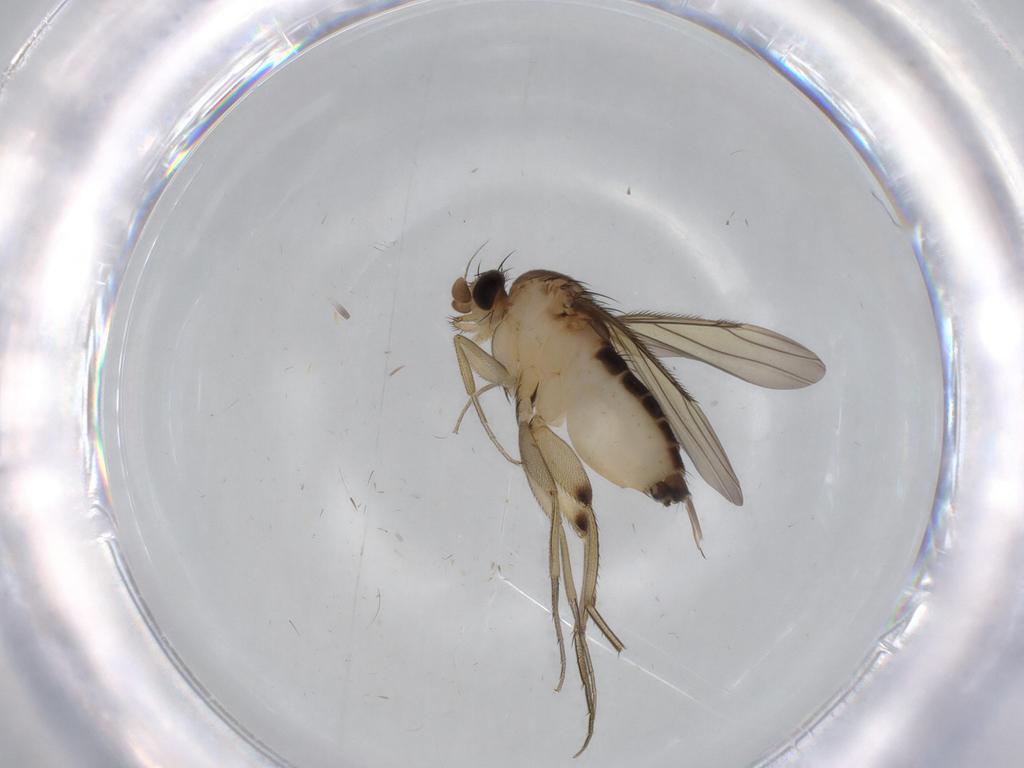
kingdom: Animalia
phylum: Arthropoda
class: Insecta
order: Diptera
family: Phoridae
